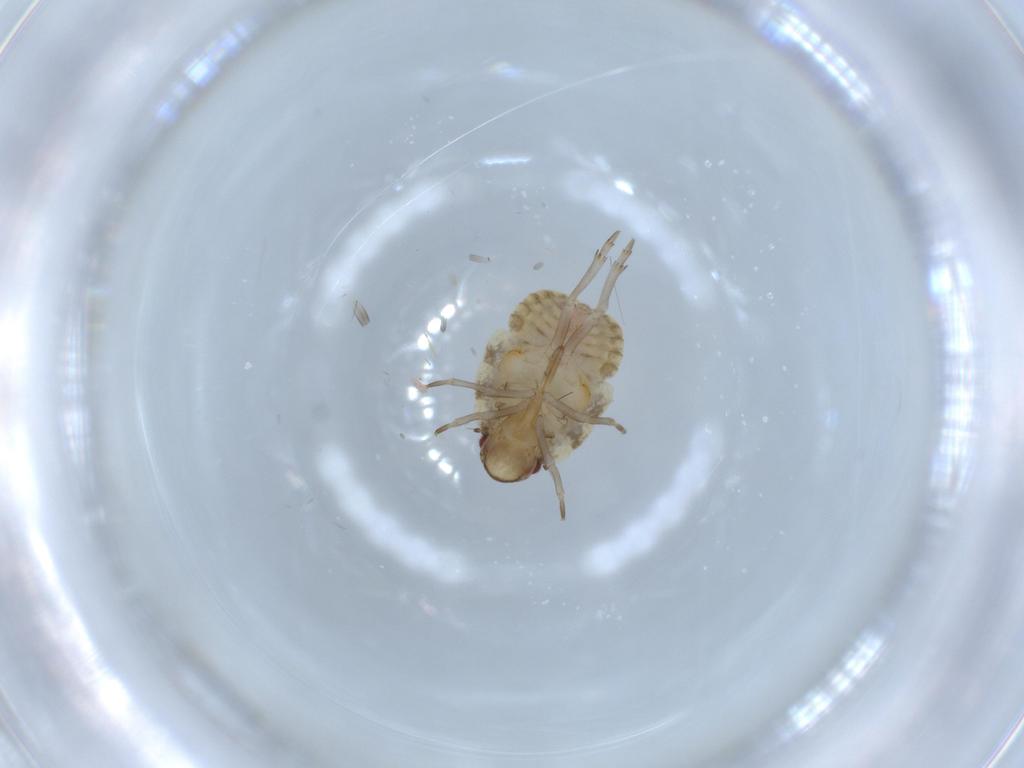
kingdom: Animalia
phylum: Arthropoda
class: Insecta
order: Hemiptera
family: Flatidae
